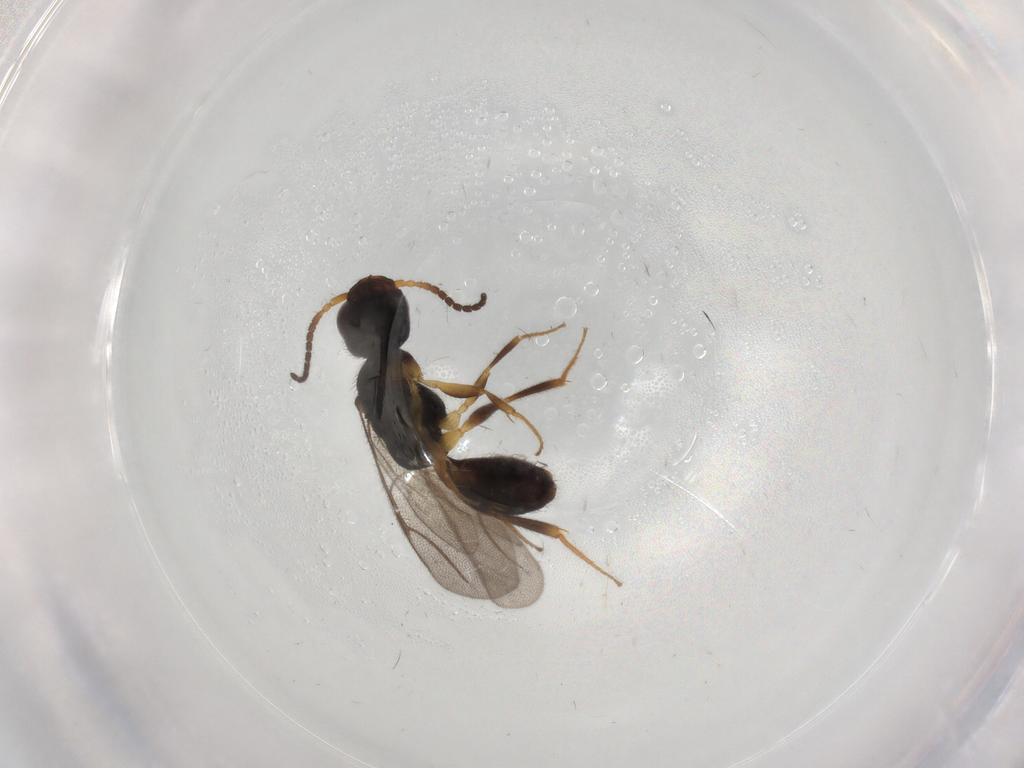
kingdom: Animalia
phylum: Arthropoda
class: Insecta
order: Hymenoptera
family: Bethylidae
